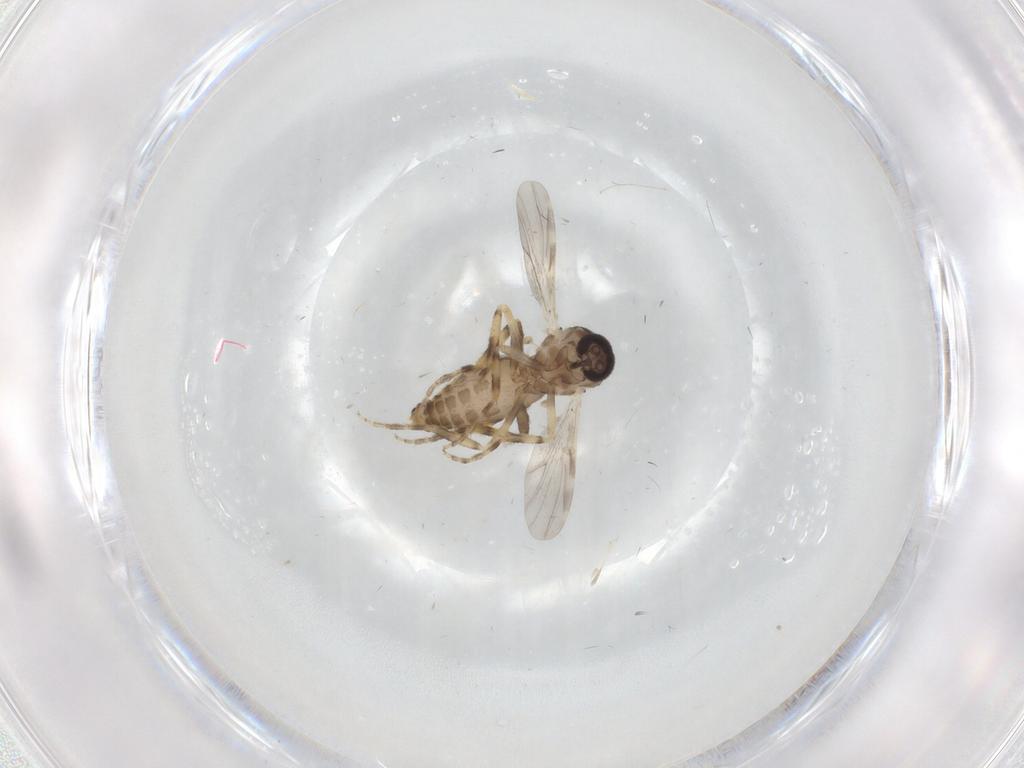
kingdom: Animalia
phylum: Arthropoda
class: Insecta
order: Diptera
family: Ceratopogonidae
